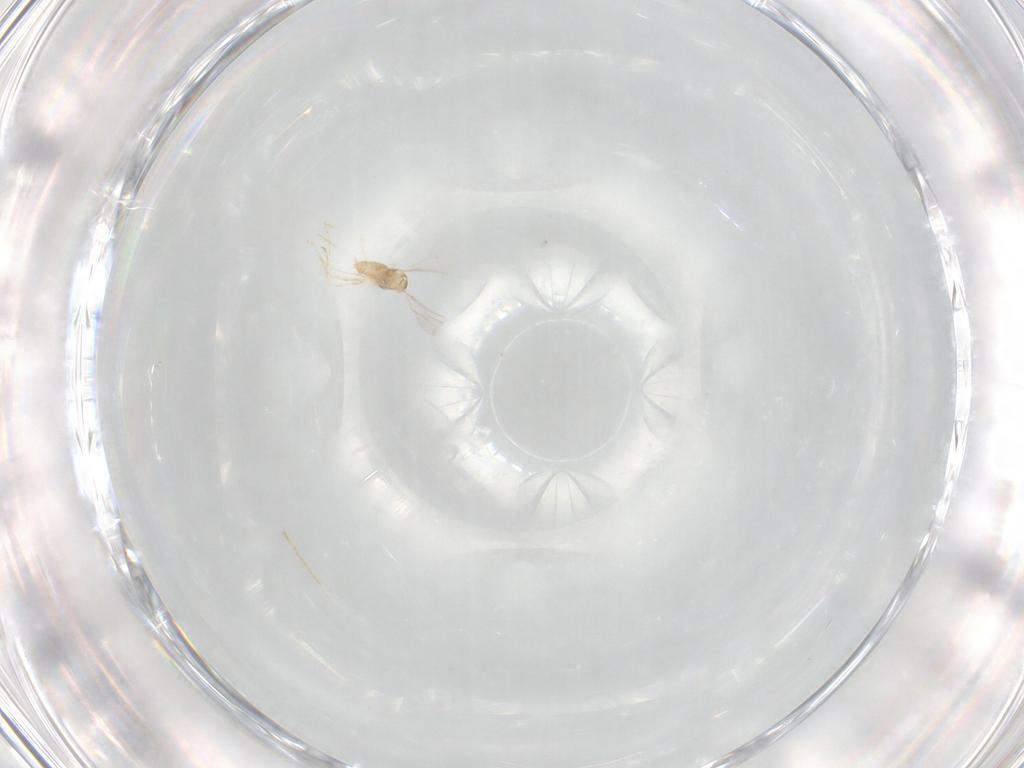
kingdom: Animalia
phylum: Arthropoda
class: Insecta
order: Diptera
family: Cecidomyiidae
